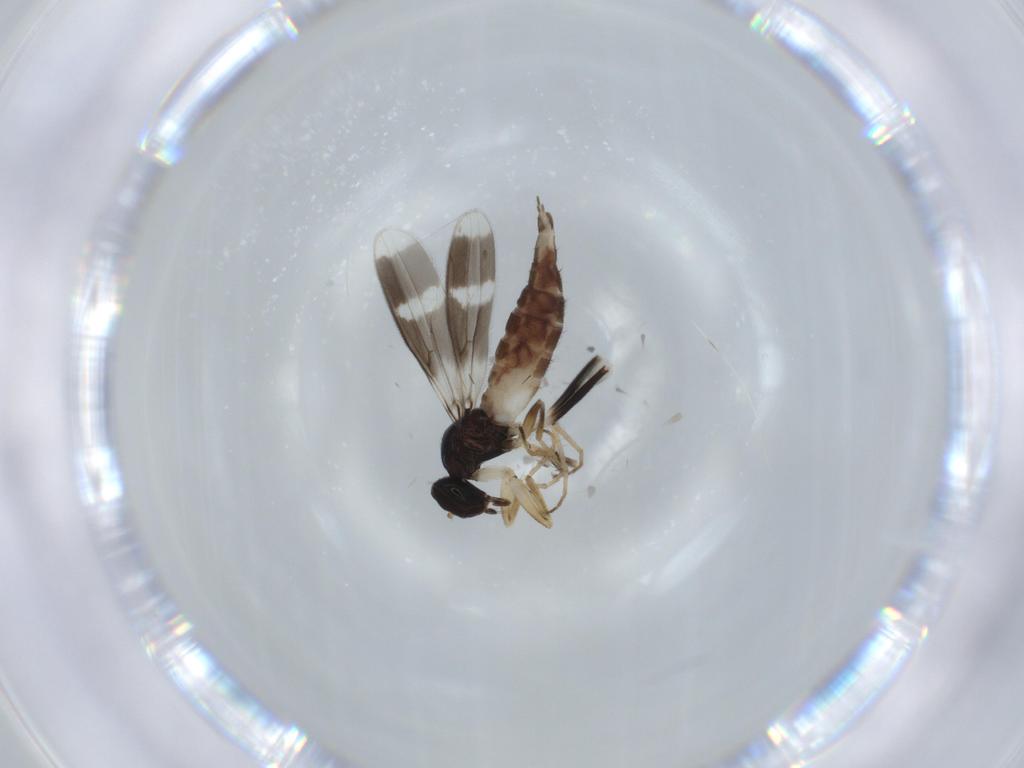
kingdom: Animalia
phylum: Arthropoda
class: Insecta
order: Diptera
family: Hybotidae
